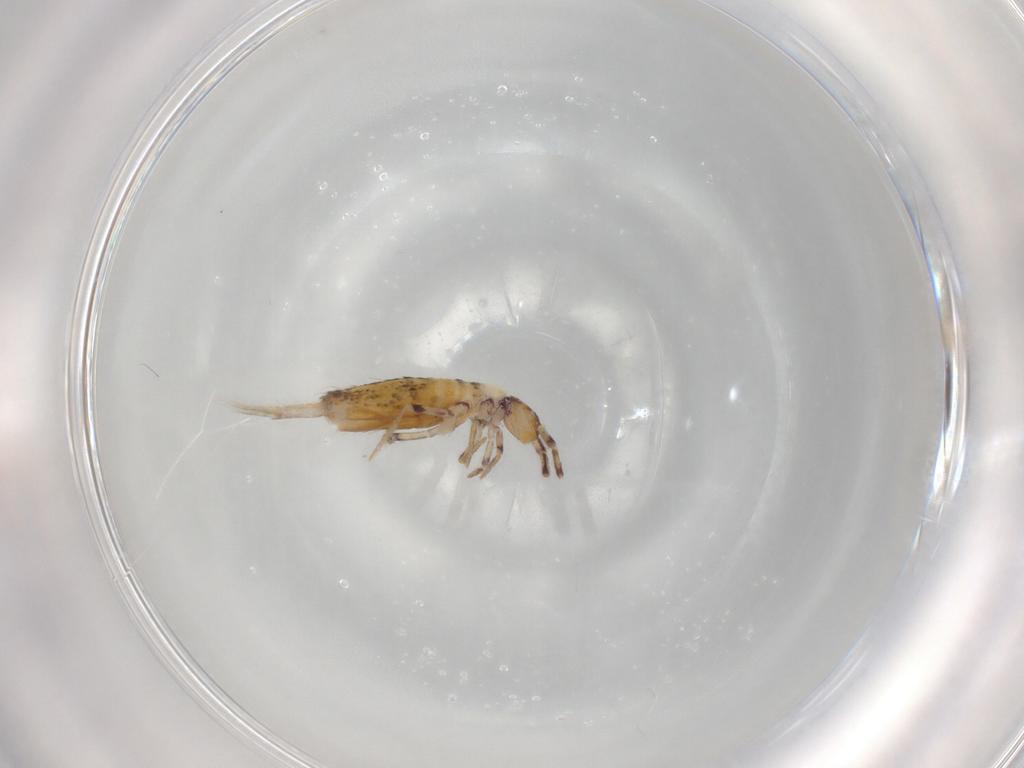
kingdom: Animalia
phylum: Arthropoda
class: Collembola
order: Entomobryomorpha
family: Entomobryidae
